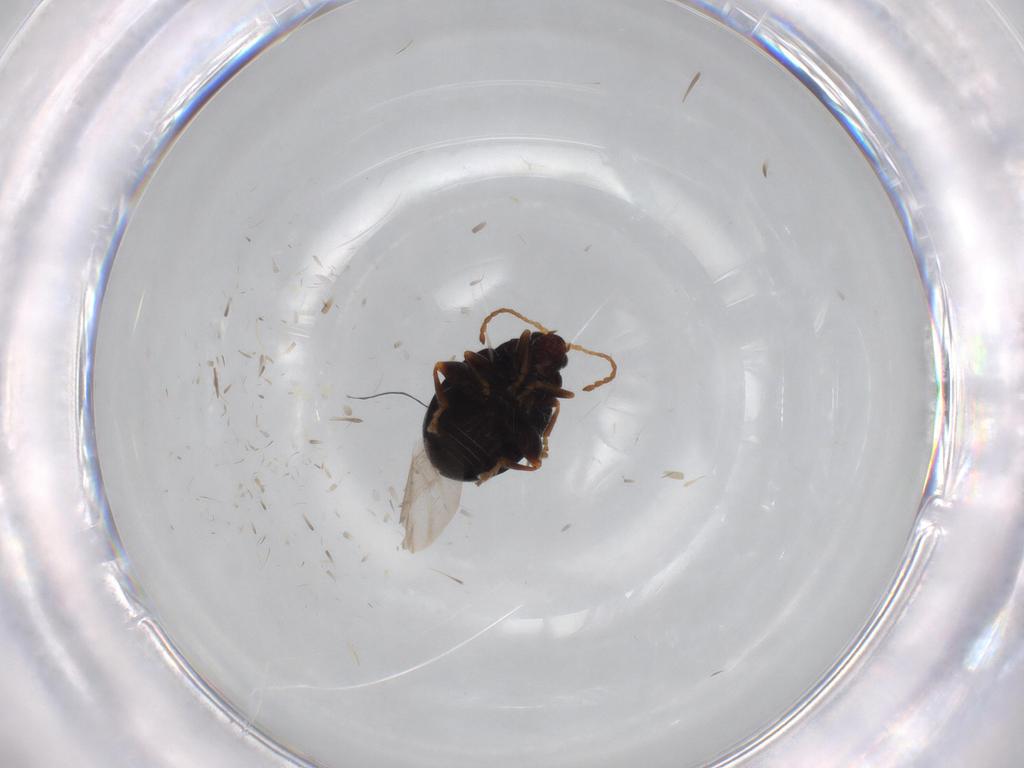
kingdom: Animalia
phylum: Arthropoda
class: Insecta
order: Coleoptera
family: Chrysomelidae
